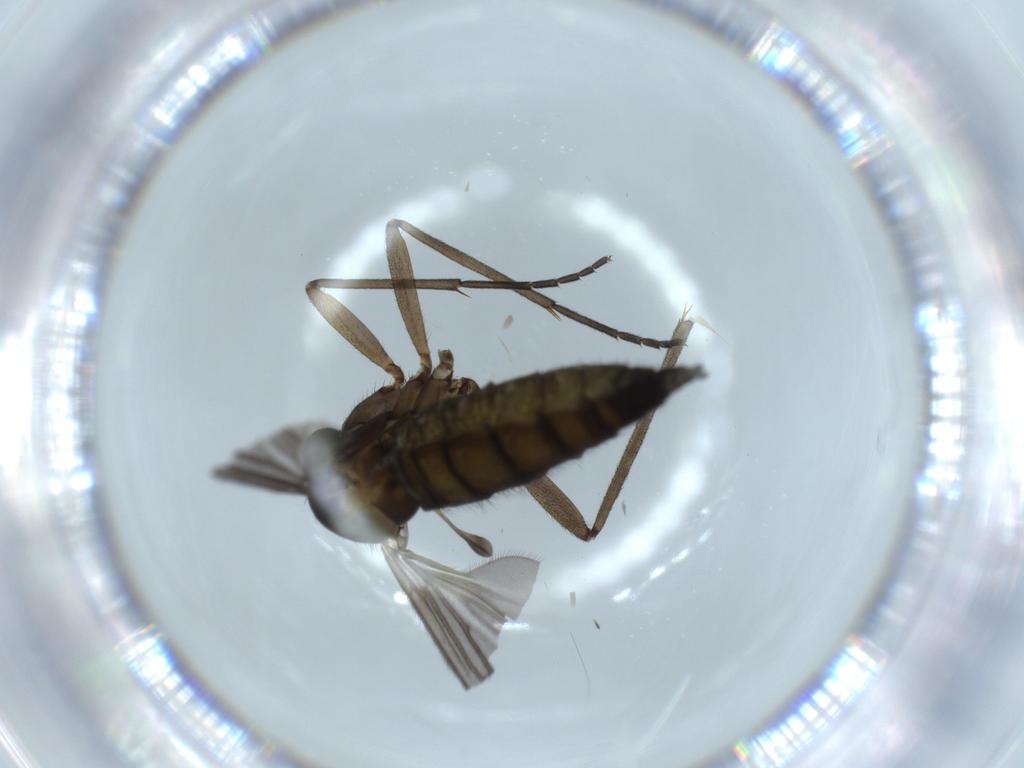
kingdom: Animalia
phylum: Arthropoda
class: Insecta
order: Diptera
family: Sciaridae
